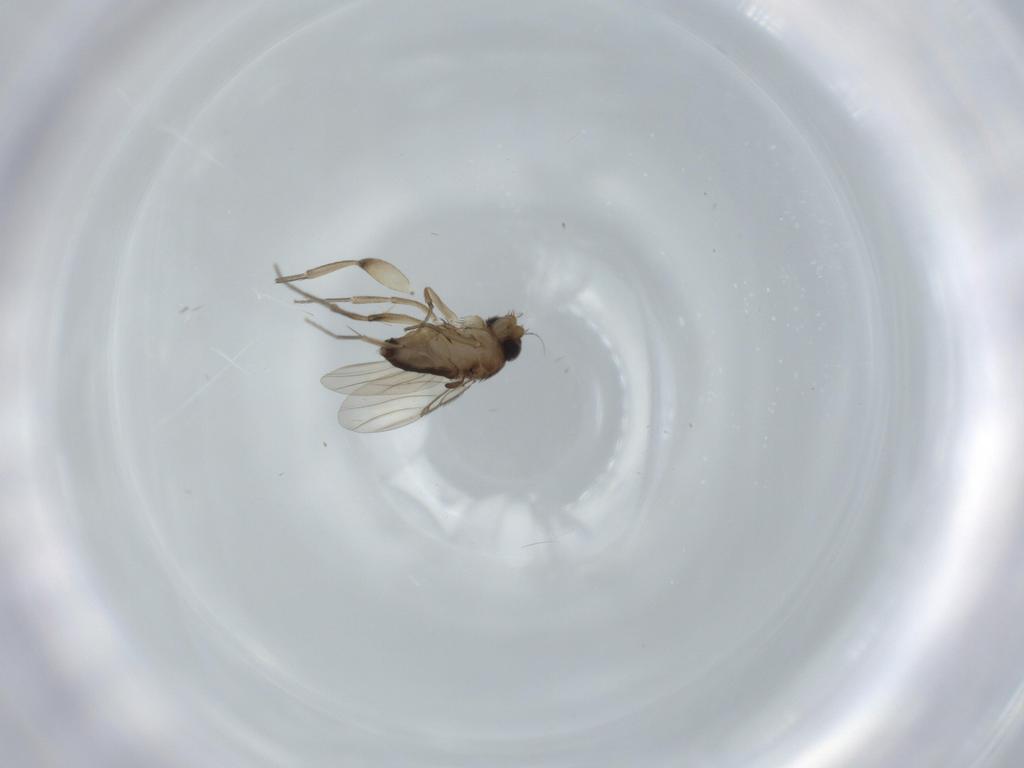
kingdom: Animalia
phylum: Arthropoda
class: Insecta
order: Diptera
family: Phoridae
